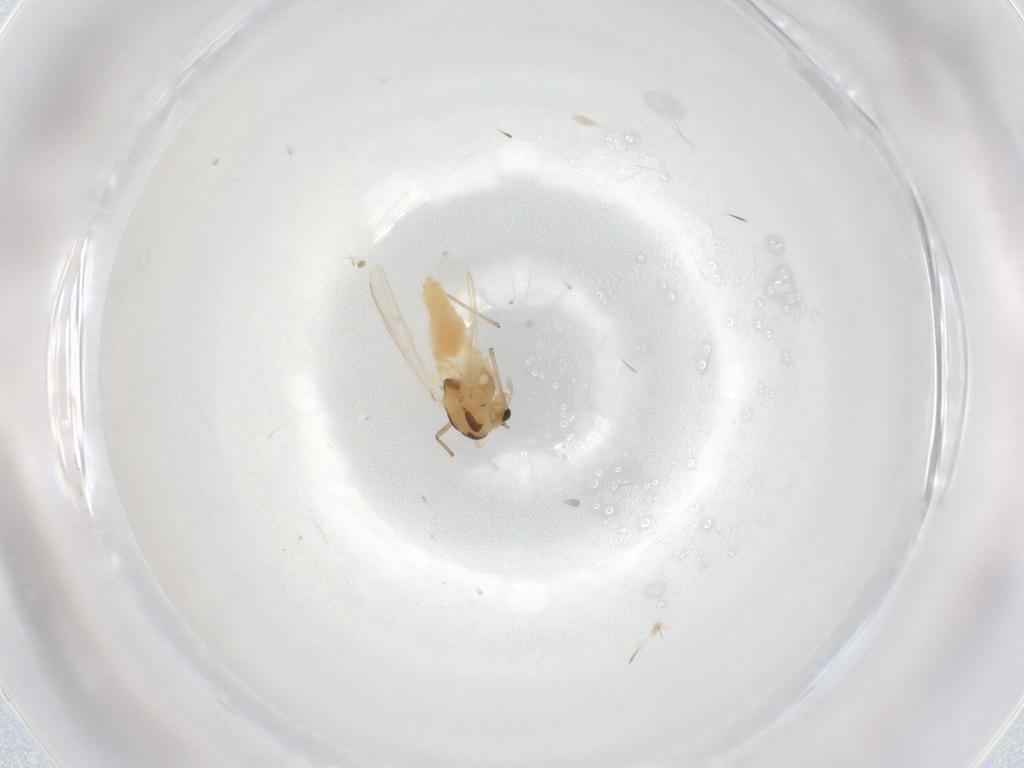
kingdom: Animalia
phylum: Arthropoda
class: Insecta
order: Diptera
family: Chironomidae
